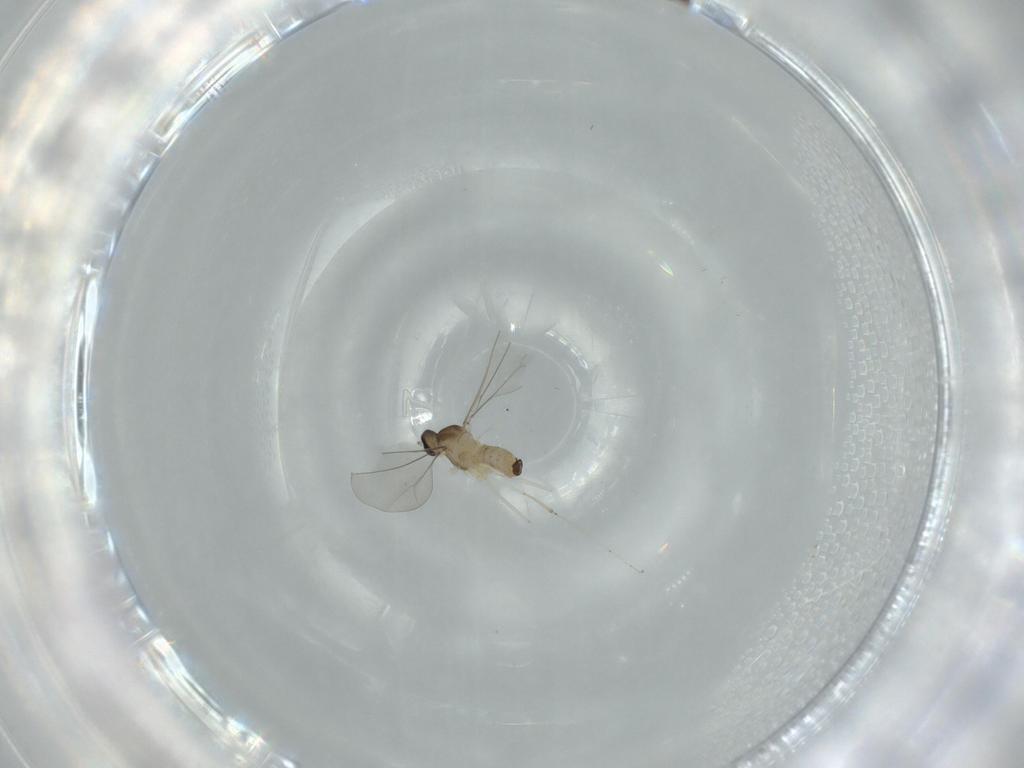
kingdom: Animalia
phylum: Arthropoda
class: Insecta
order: Diptera
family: Cecidomyiidae
